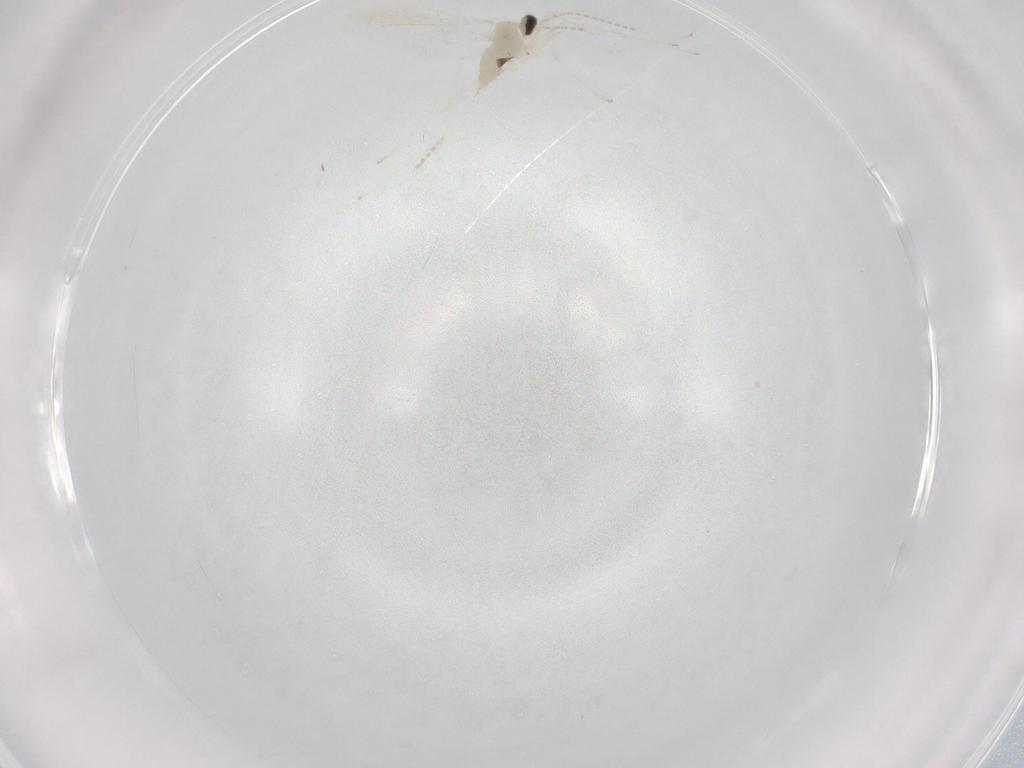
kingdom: Animalia
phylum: Arthropoda
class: Insecta
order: Diptera
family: Cecidomyiidae
